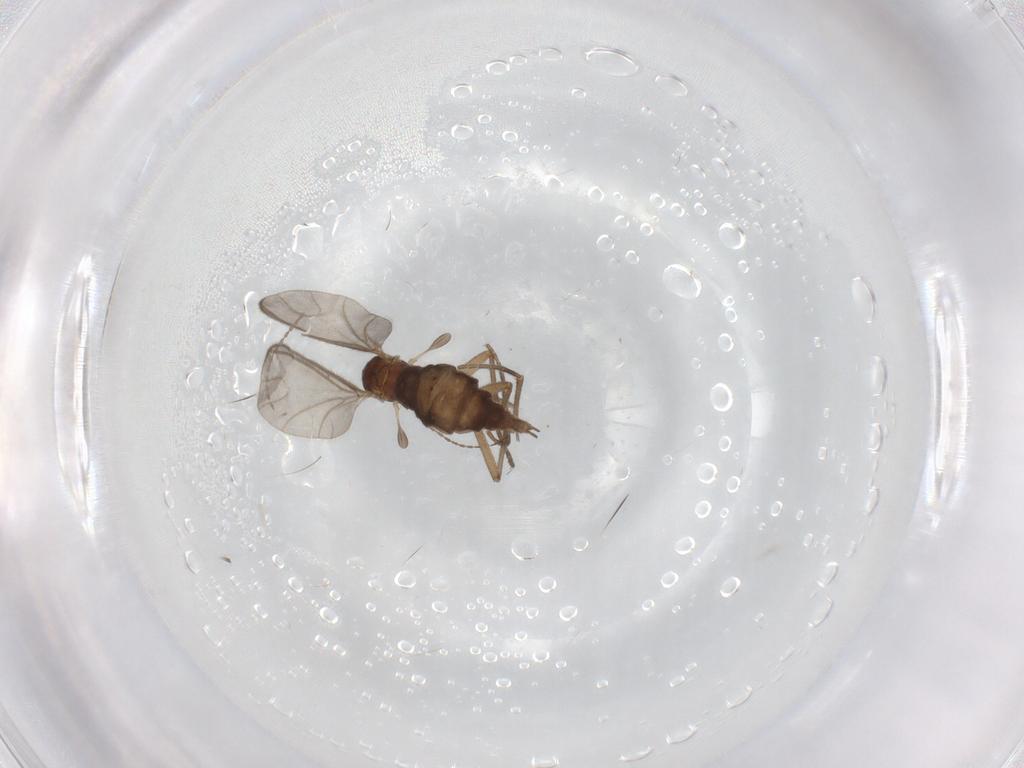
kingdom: Animalia
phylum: Arthropoda
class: Insecta
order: Diptera
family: Sciaridae
